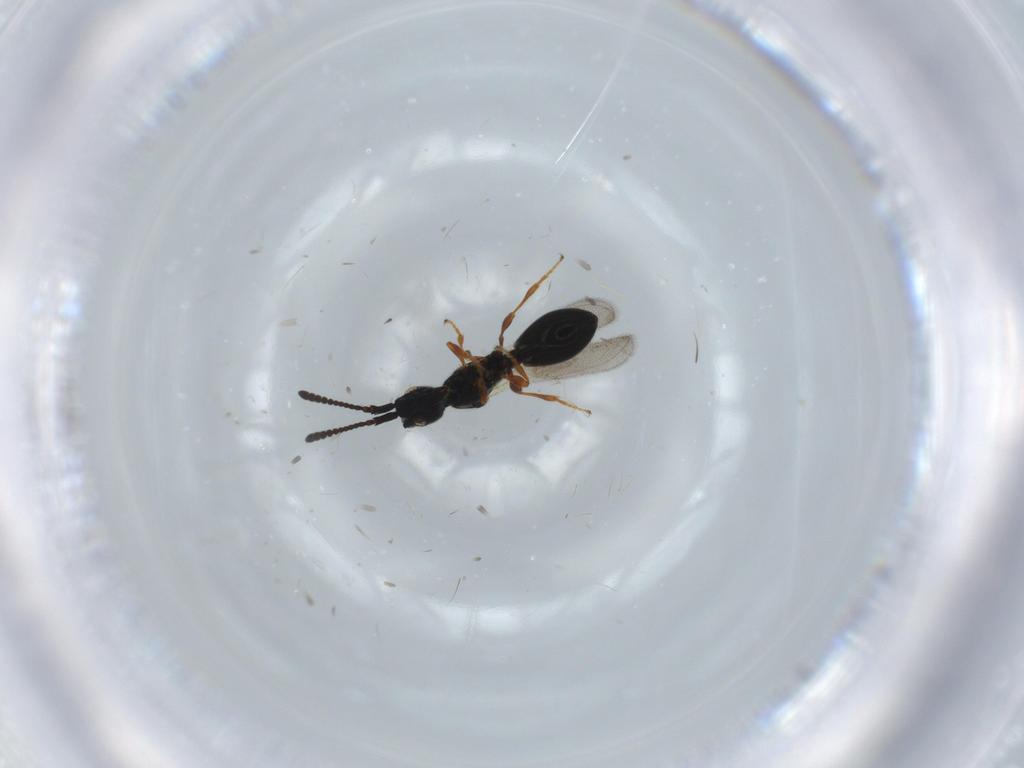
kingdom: Animalia
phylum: Arthropoda
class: Insecta
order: Hymenoptera
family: Diapriidae
